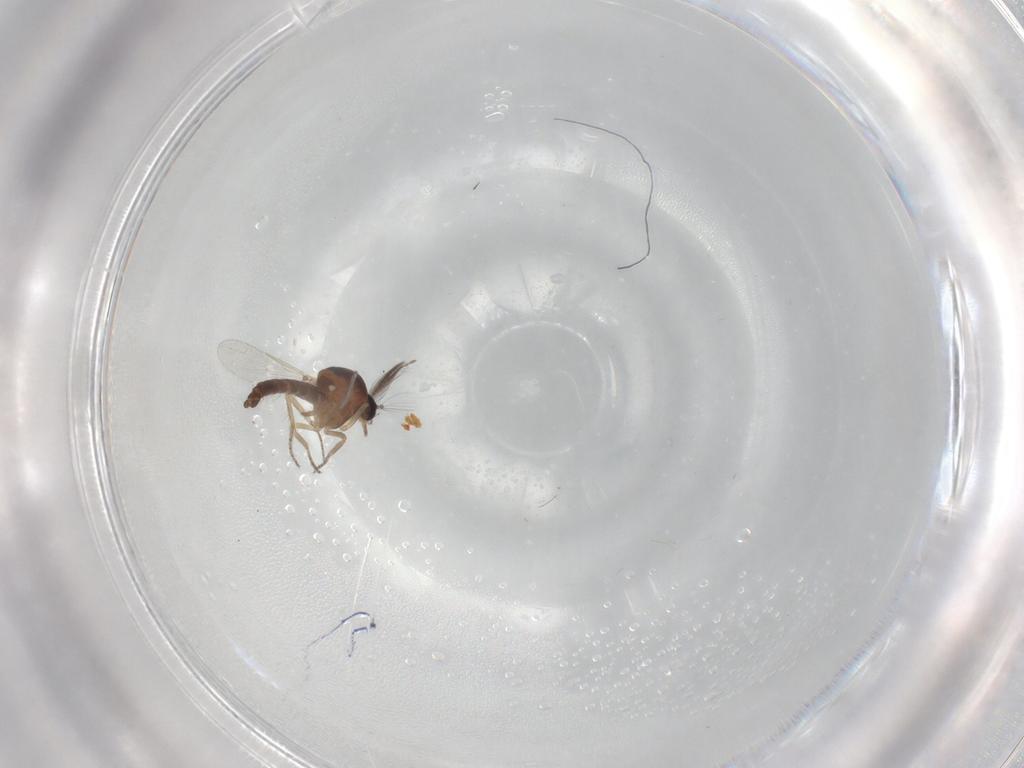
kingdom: Animalia
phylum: Arthropoda
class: Insecta
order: Diptera
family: Ceratopogonidae
